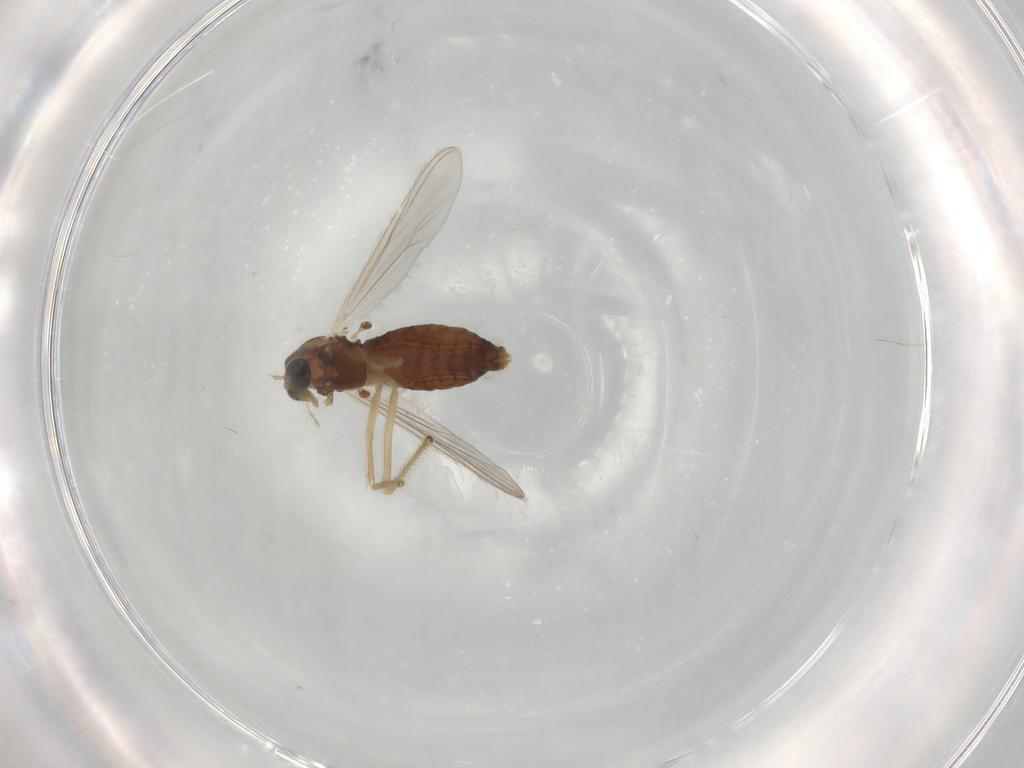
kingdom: Animalia
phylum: Arthropoda
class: Insecta
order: Diptera
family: Chironomidae
